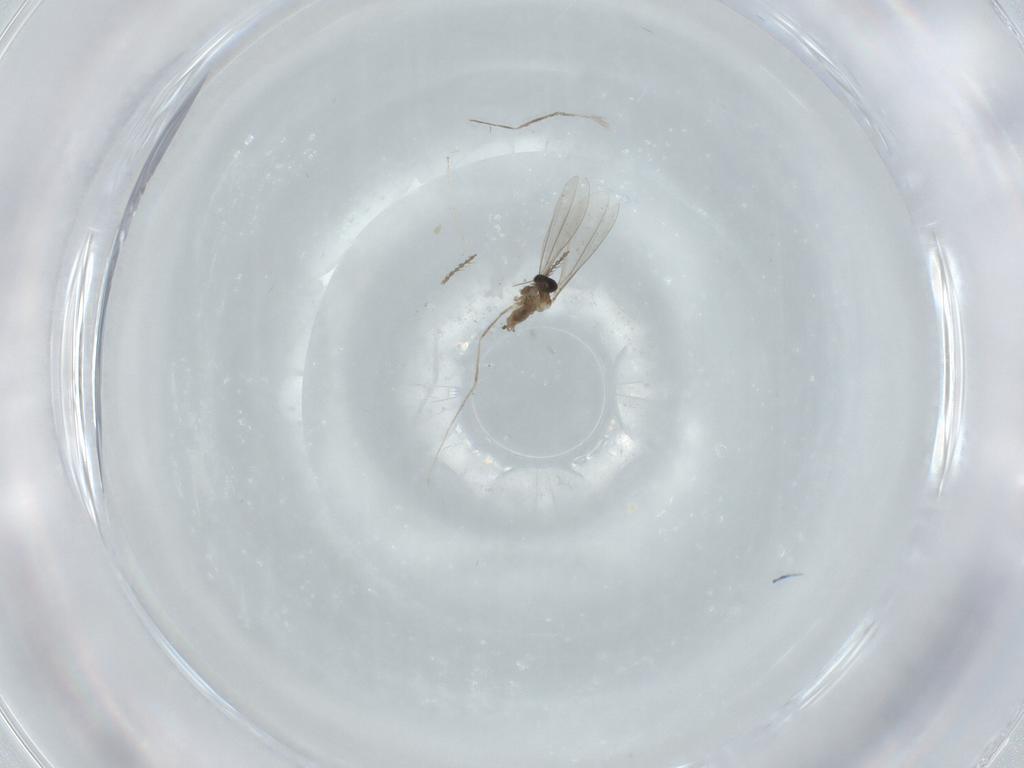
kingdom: Animalia
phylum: Arthropoda
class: Insecta
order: Diptera
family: Cecidomyiidae
